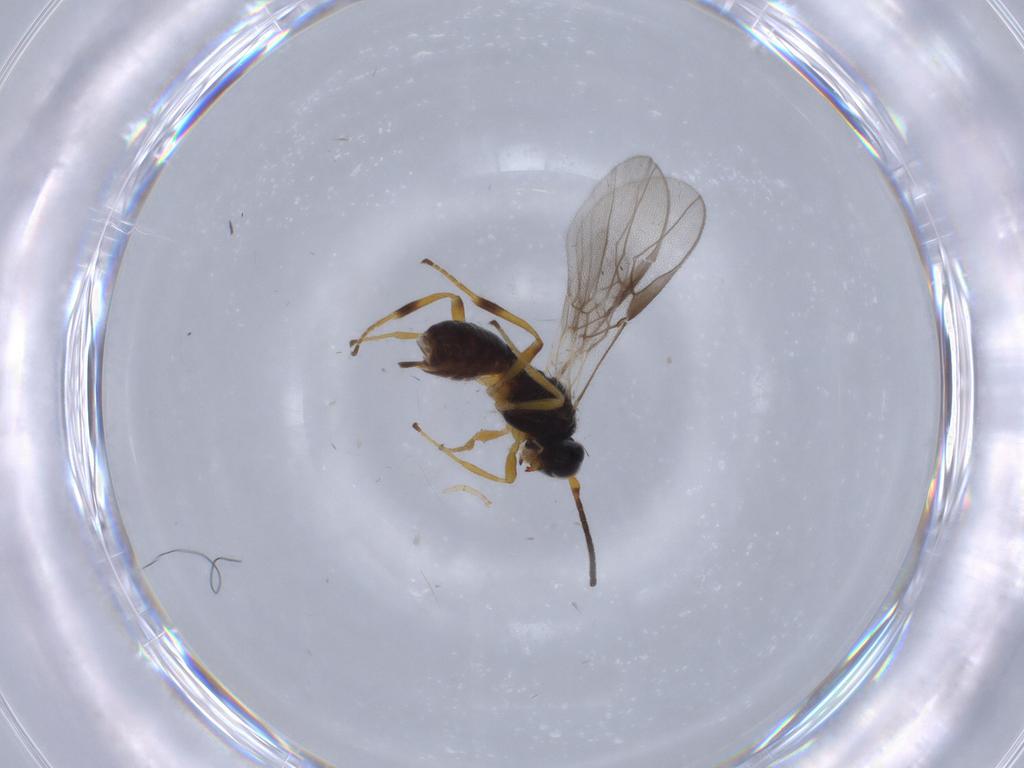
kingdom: Animalia
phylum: Arthropoda
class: Insecta
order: Hymenoptera
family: Braconidae
